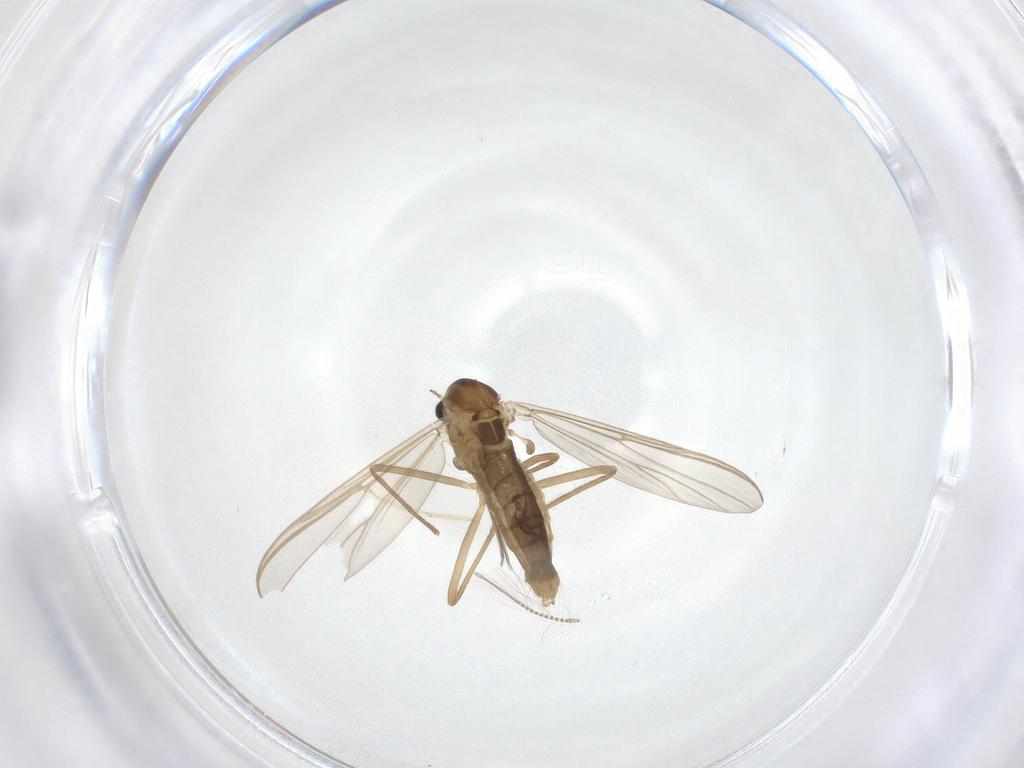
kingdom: Animalia
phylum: Arthropoda
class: Insecta
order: Diptera
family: Chironomidae
